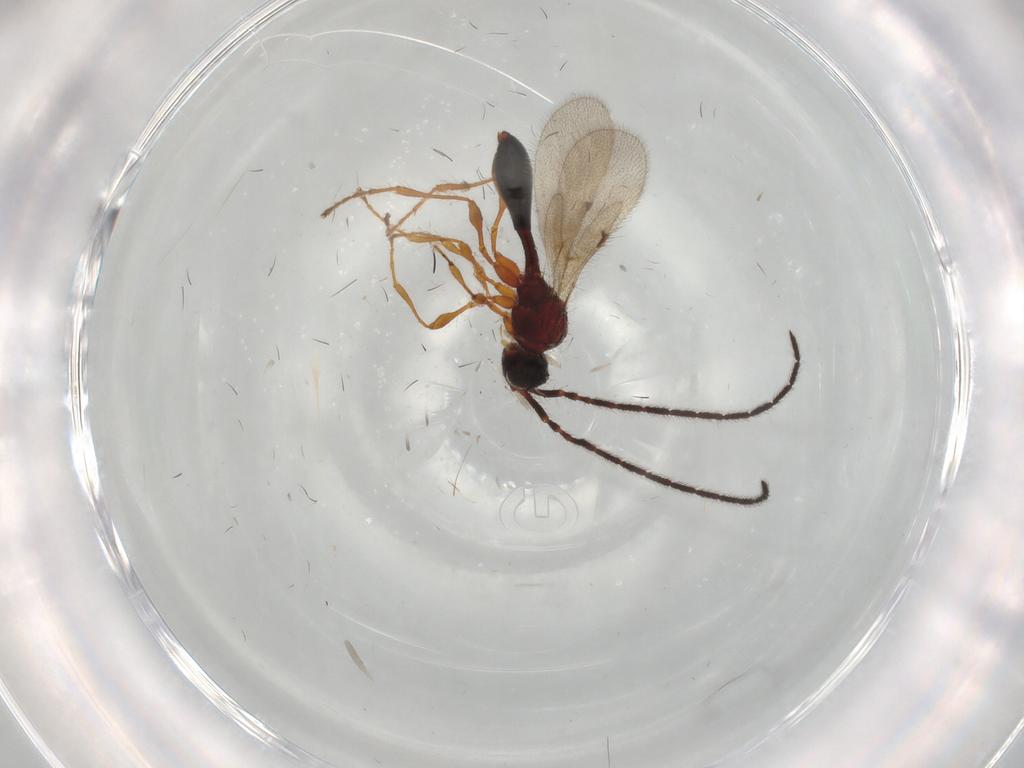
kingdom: Animalia
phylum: Arthropoda
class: Insecta
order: Hymenoptera
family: Diapriidae
